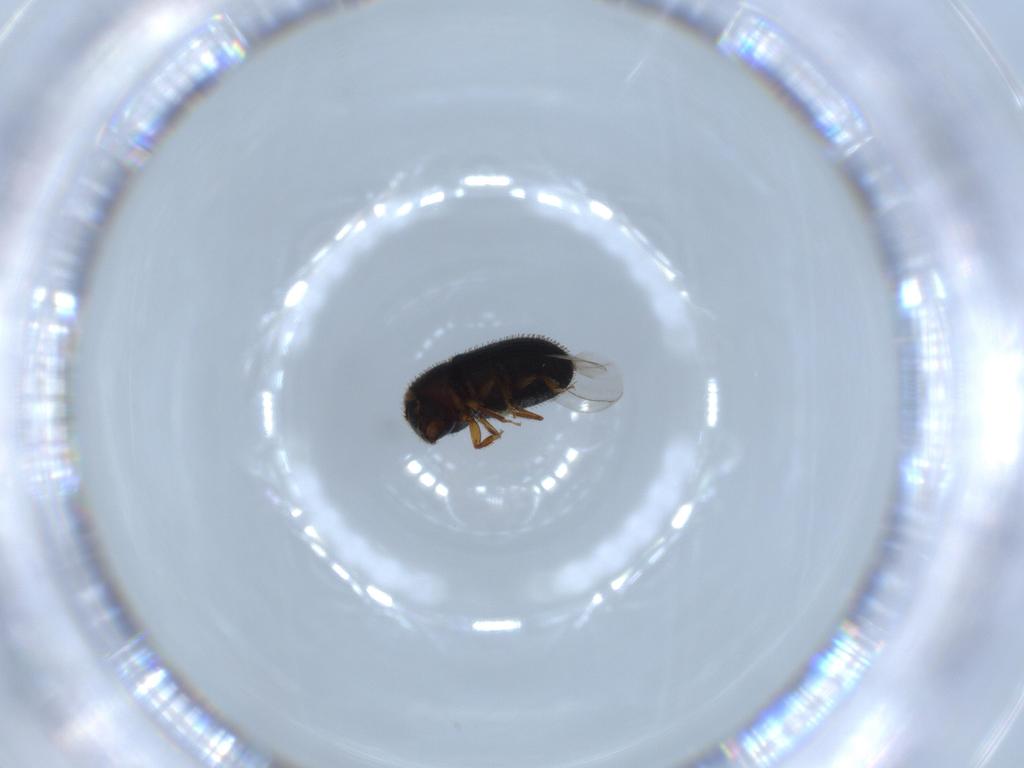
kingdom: Animalia
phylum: Arthropoda
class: Insecta
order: Coleoptera
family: Curculionidae
